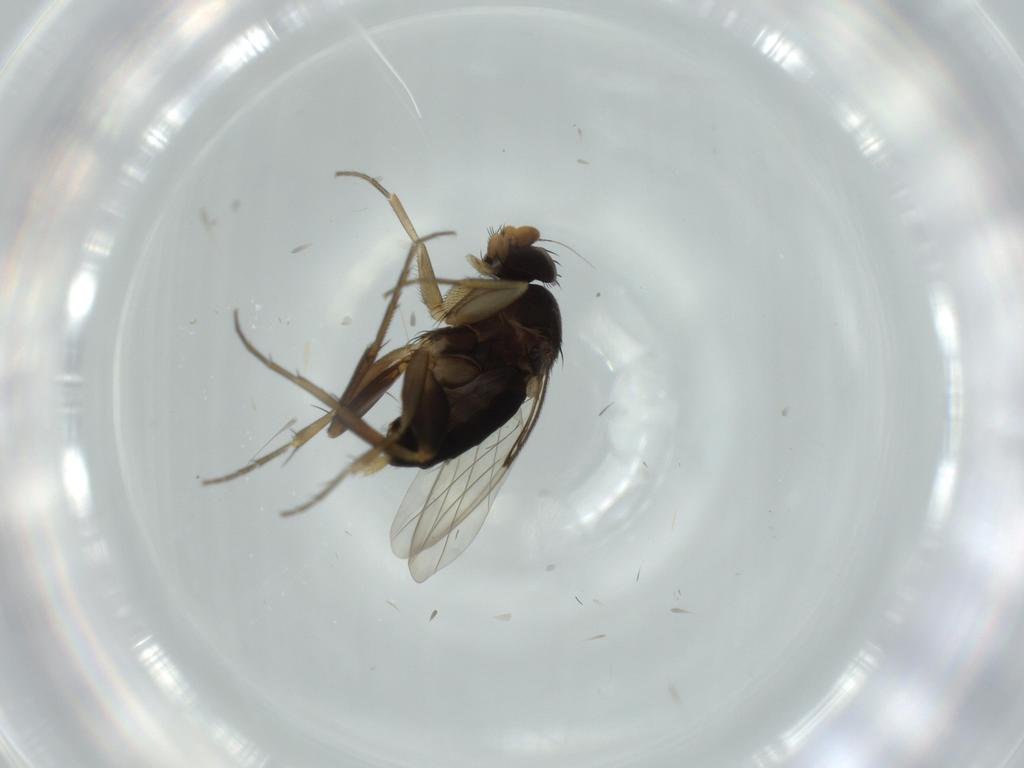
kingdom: Animalia
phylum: Arthropoda
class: Insecta
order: Diptera
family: Phoridae
